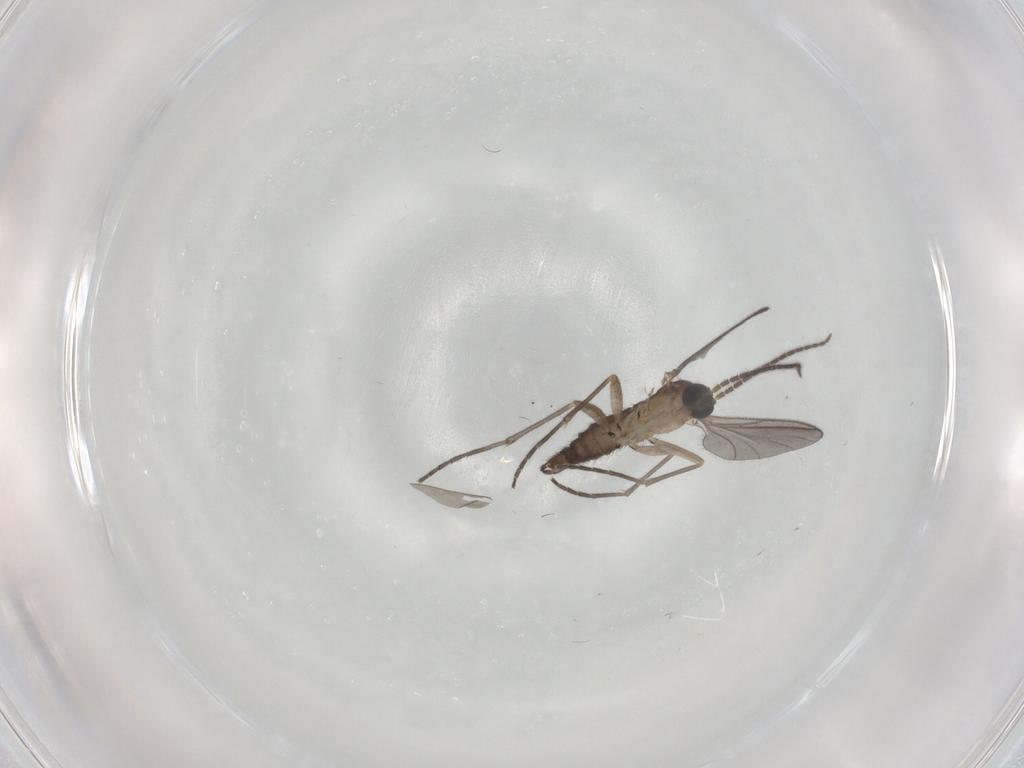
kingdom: Animalia
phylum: Arthropoda
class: Insecta
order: Diptera
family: Sciaridae
